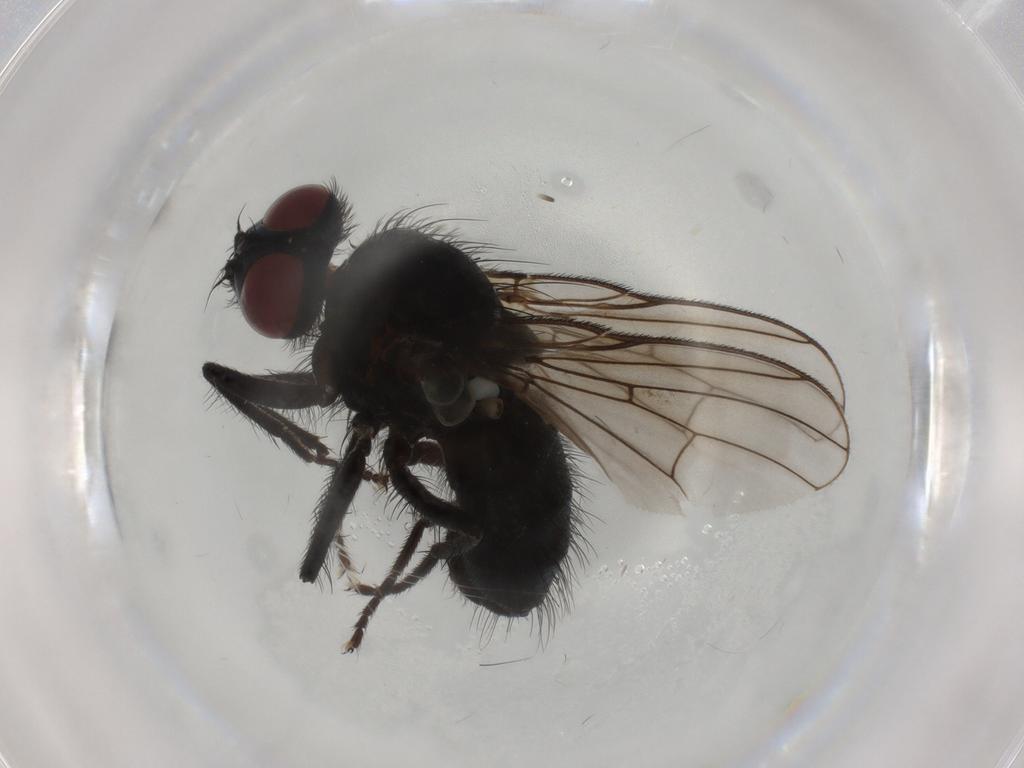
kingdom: Animalia
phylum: Arthropoda
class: Insecta
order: Diptera
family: Muscidae
